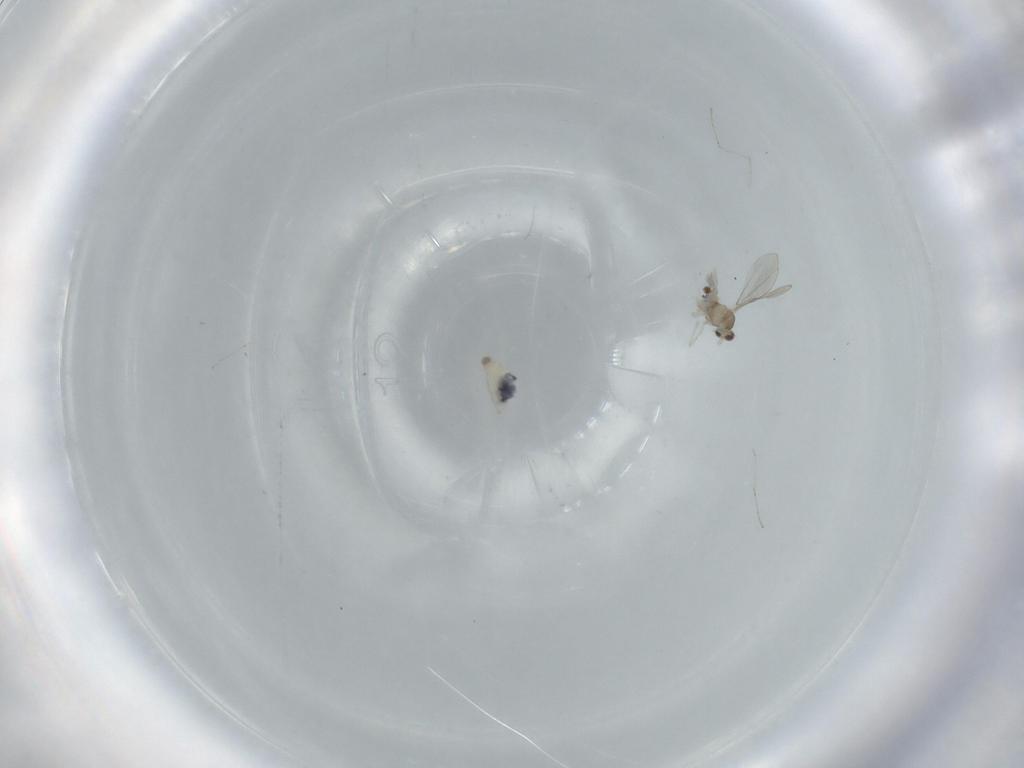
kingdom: Animalia
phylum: Arthropoda
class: Insecta
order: Diptera
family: Cecidomyiidae
